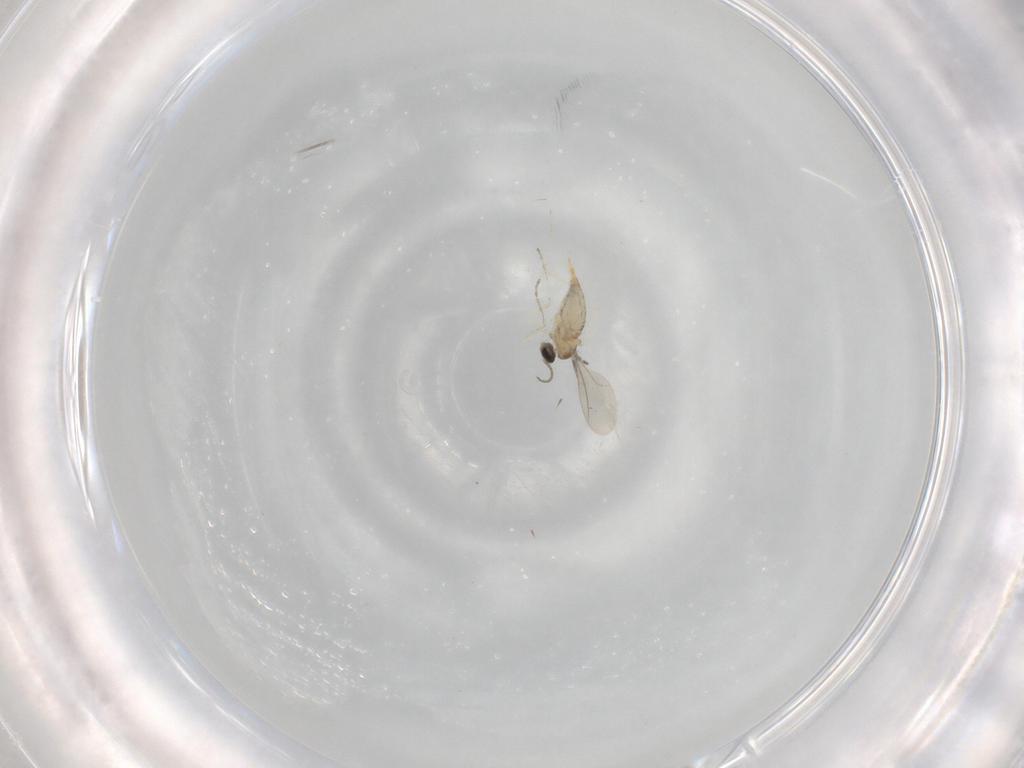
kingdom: Animalia
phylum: Arthropoda
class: Insecta
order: Diptera
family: Cecidomyiidae
